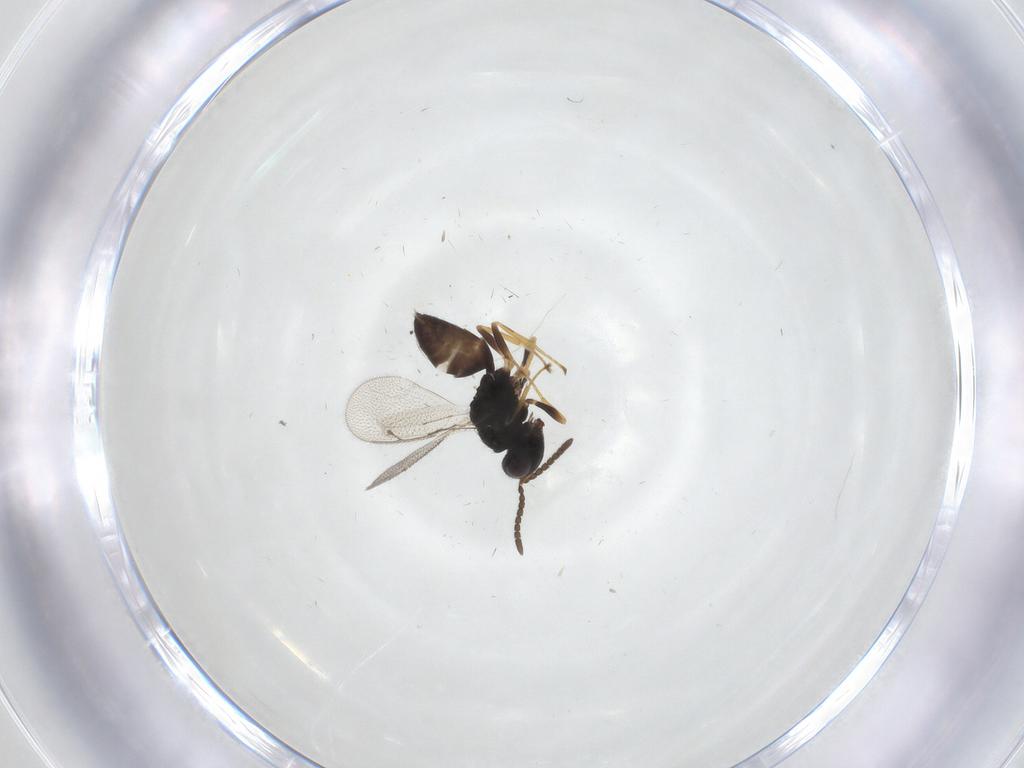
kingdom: Animalia
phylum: Arthropoda
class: Insecta
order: Hymenoptera
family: Pteromalidae
